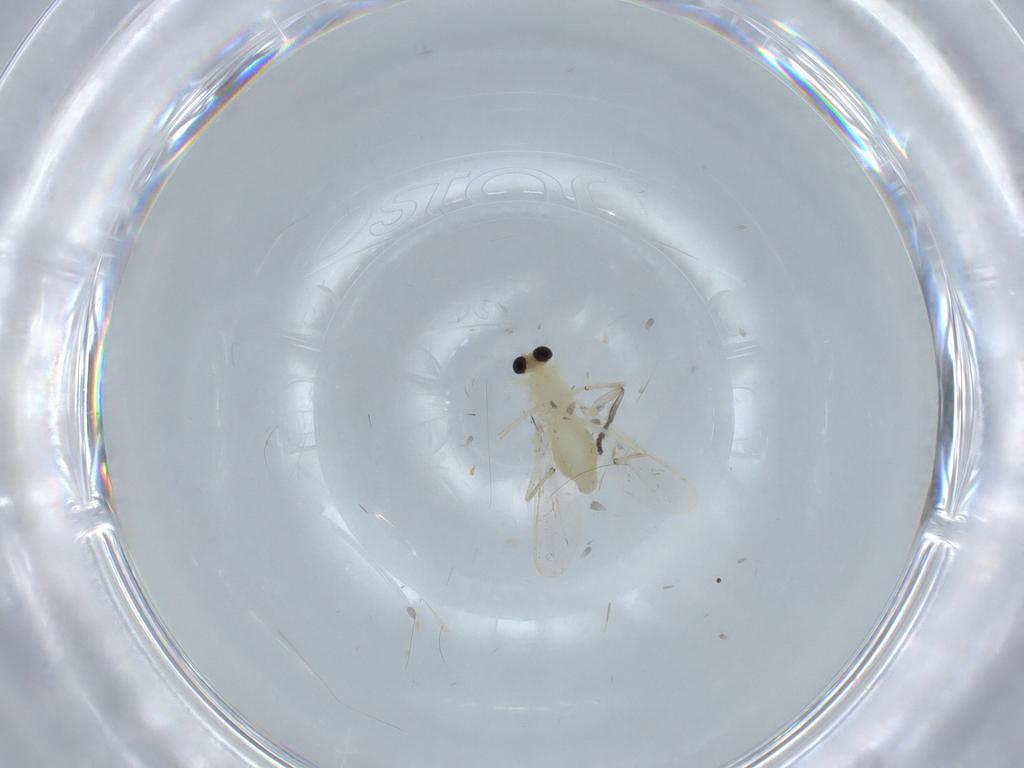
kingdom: Animalia
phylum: Arthropoda
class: Insecta
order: Diptera
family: Chironomidae
